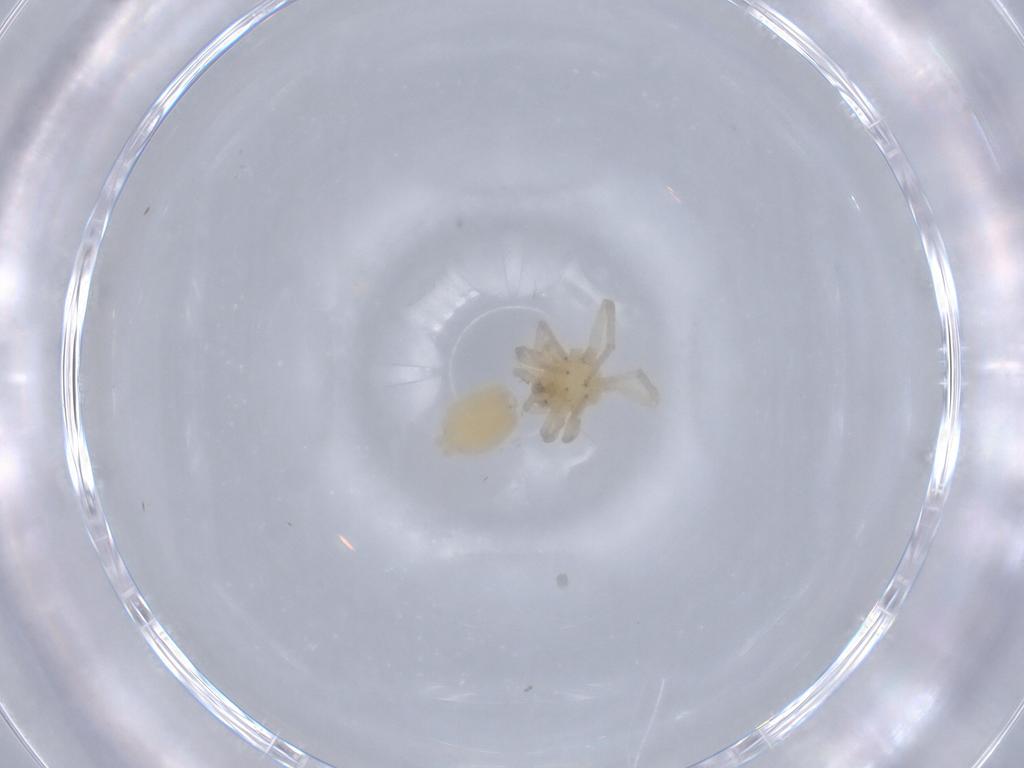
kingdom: Animalia
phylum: Arthropoda
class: Arachnida
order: Araneae
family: Corinnidae
